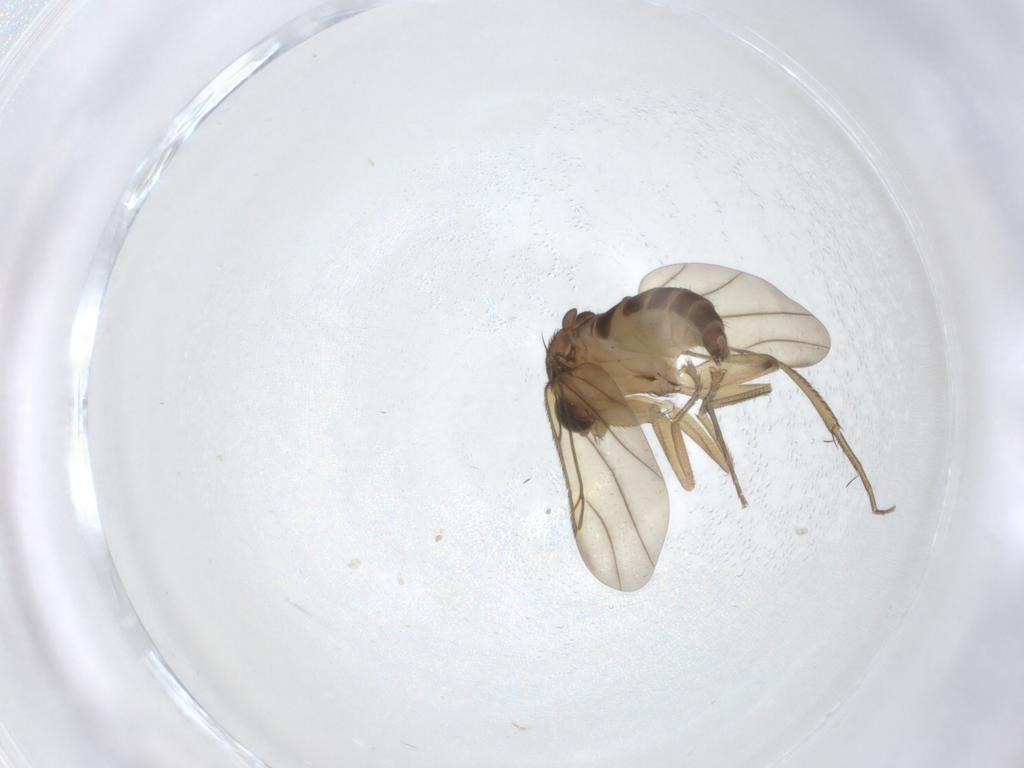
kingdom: Animalia
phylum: Arthropoda
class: Insecta
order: Diptera
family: Phoridae
